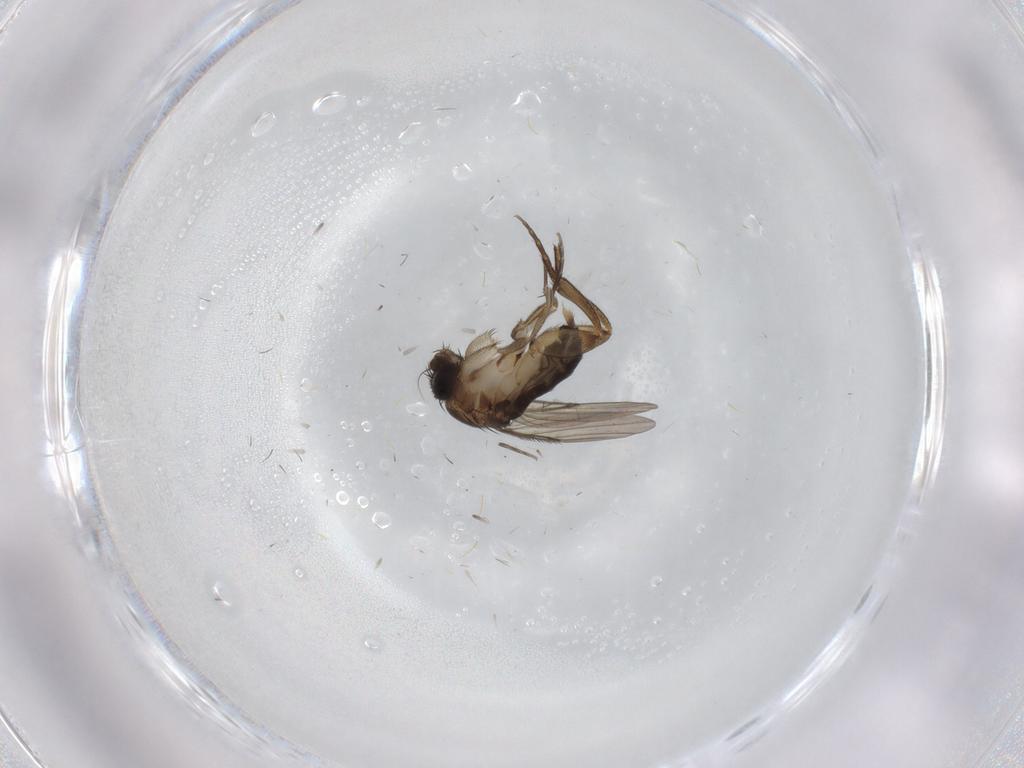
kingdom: Animalia
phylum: Arthropoda
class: Insecta
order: Diptera
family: Phoridae
